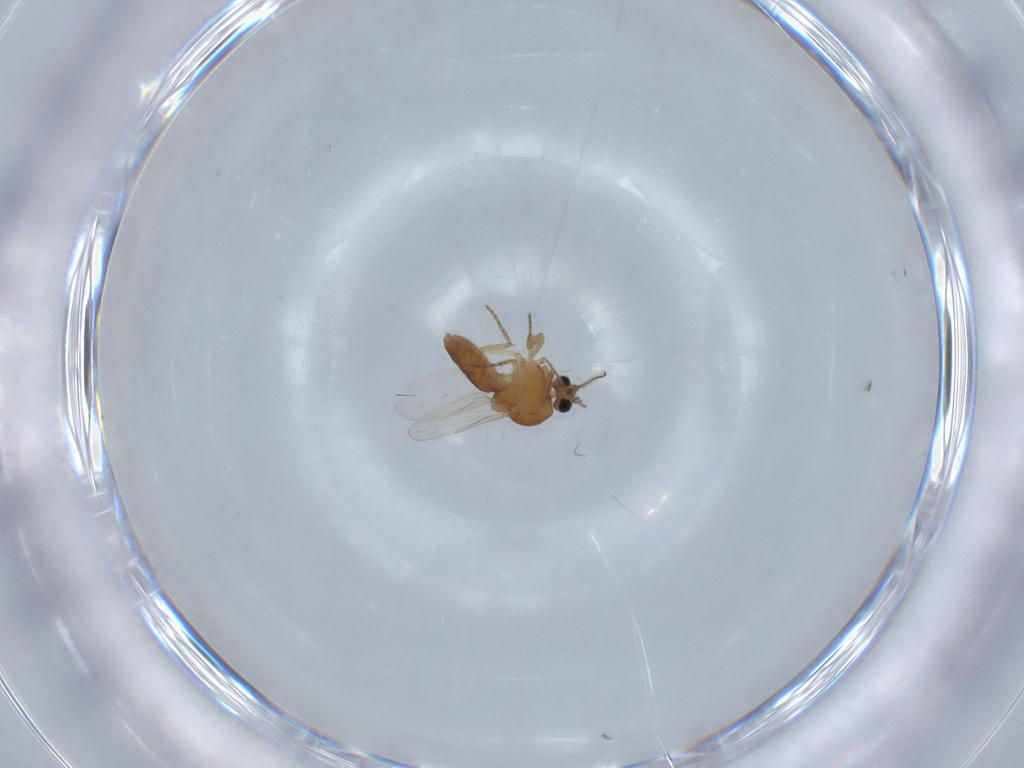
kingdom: Animalia
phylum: Arthropoda
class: Insecta
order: Diptera
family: Ceratopogonidae
